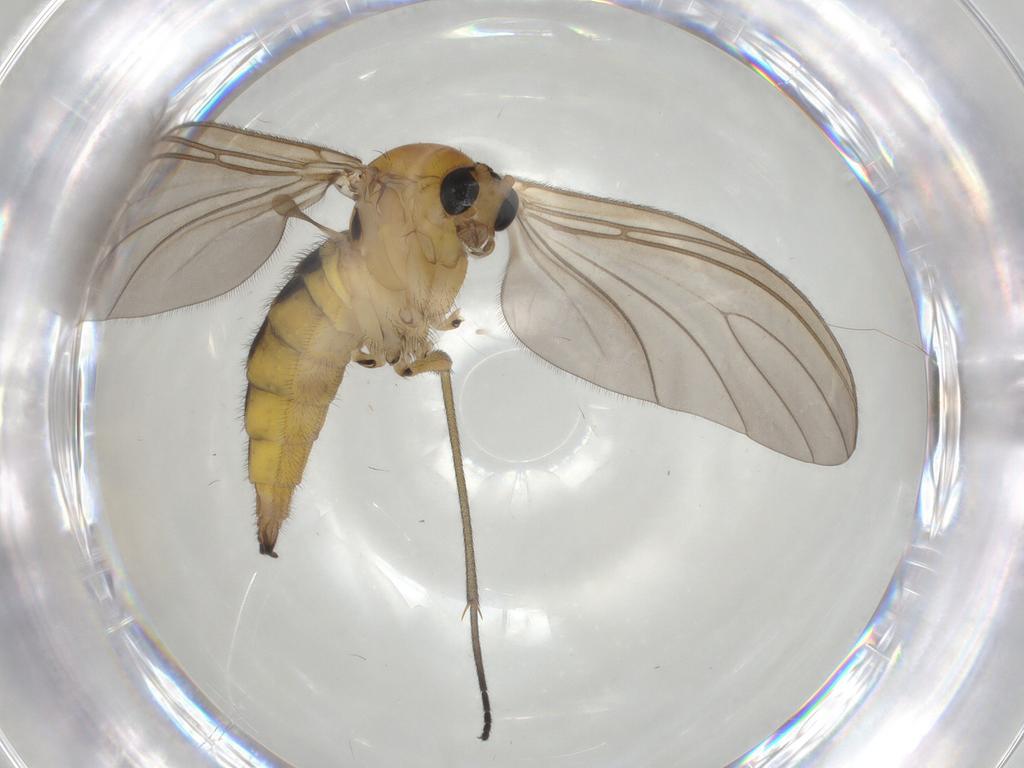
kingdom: Animalia
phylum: Arthropoda
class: Insecta
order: Diptera
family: Sciaridae
